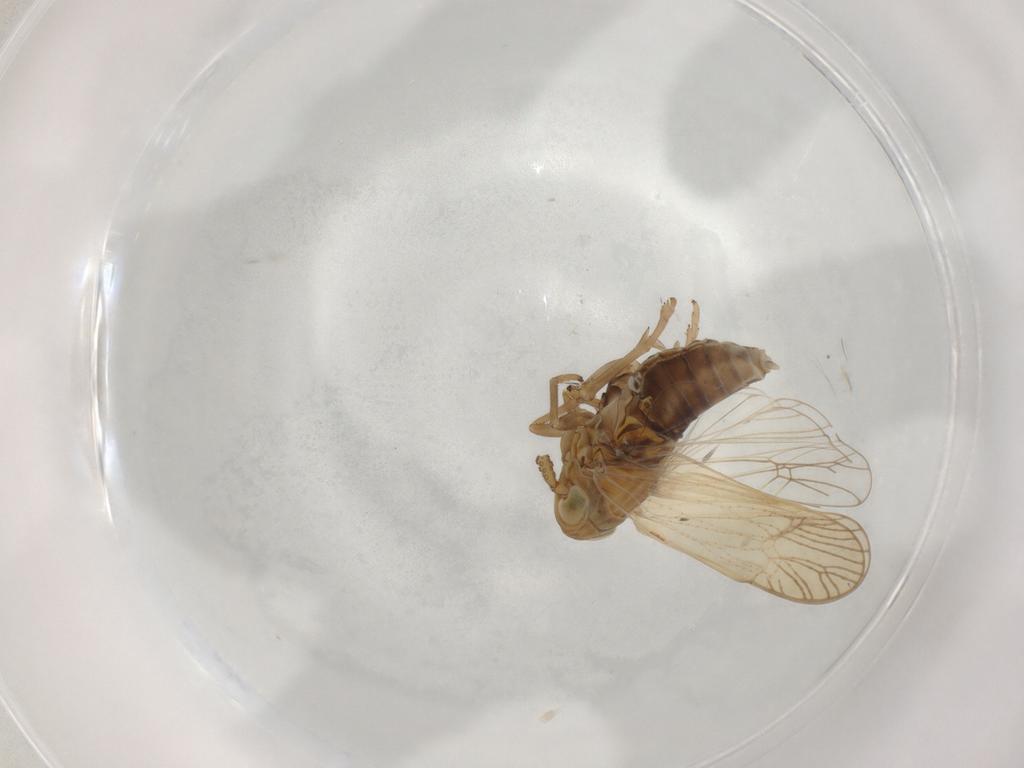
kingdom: Animalia
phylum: Arthropoda
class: Insecta
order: Hemiptera
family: Delphacidae
